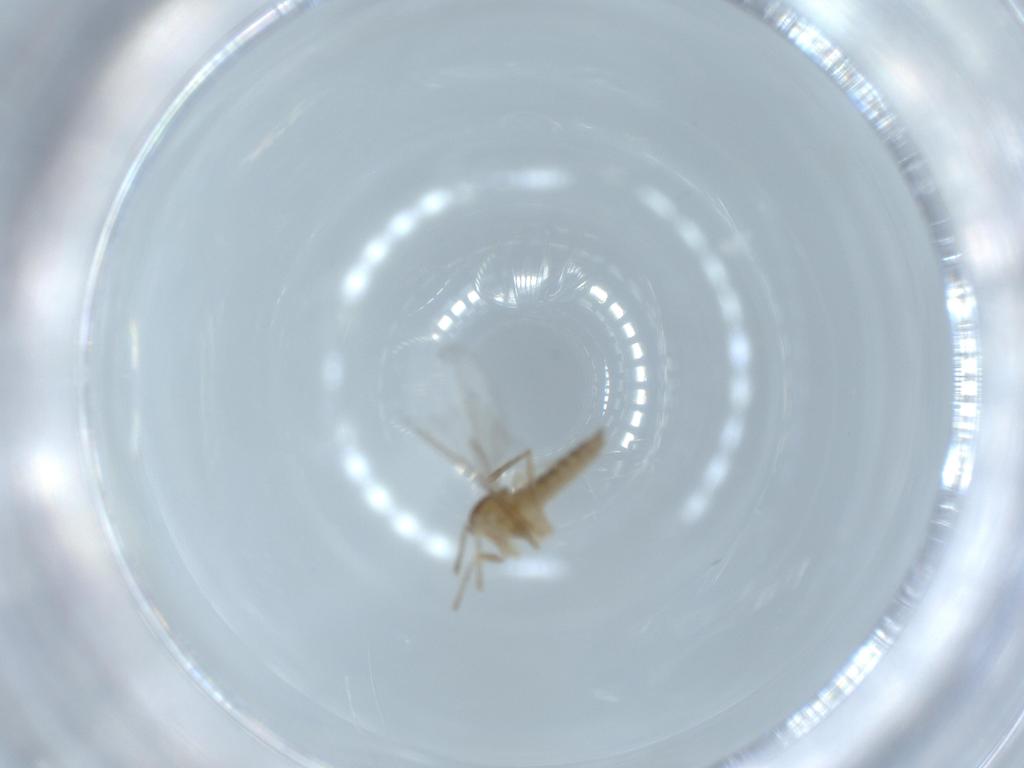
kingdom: Animalia
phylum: Arthropoda
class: Insecta
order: Diptera
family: Cecidomyiidae
